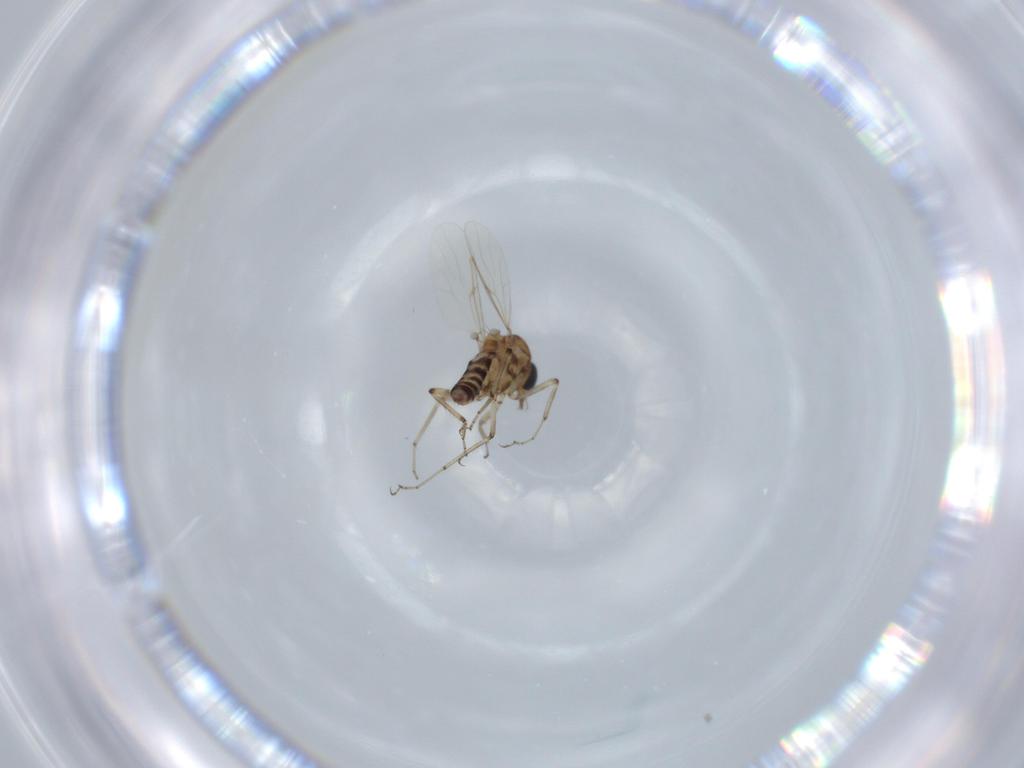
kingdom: Animalia
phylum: Arthropoda
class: Insecta
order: Diptera
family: Ceratopogonidae
